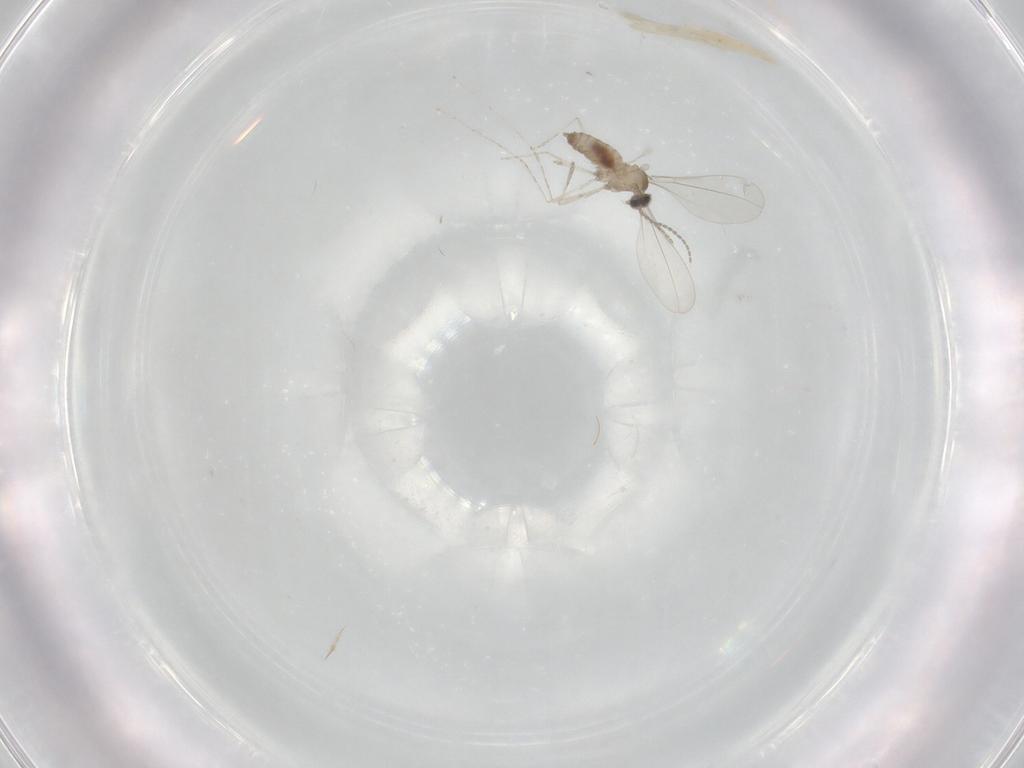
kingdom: Animalia
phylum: Arthropoda
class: Insecta
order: Diptera
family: Cecidomyiidae
